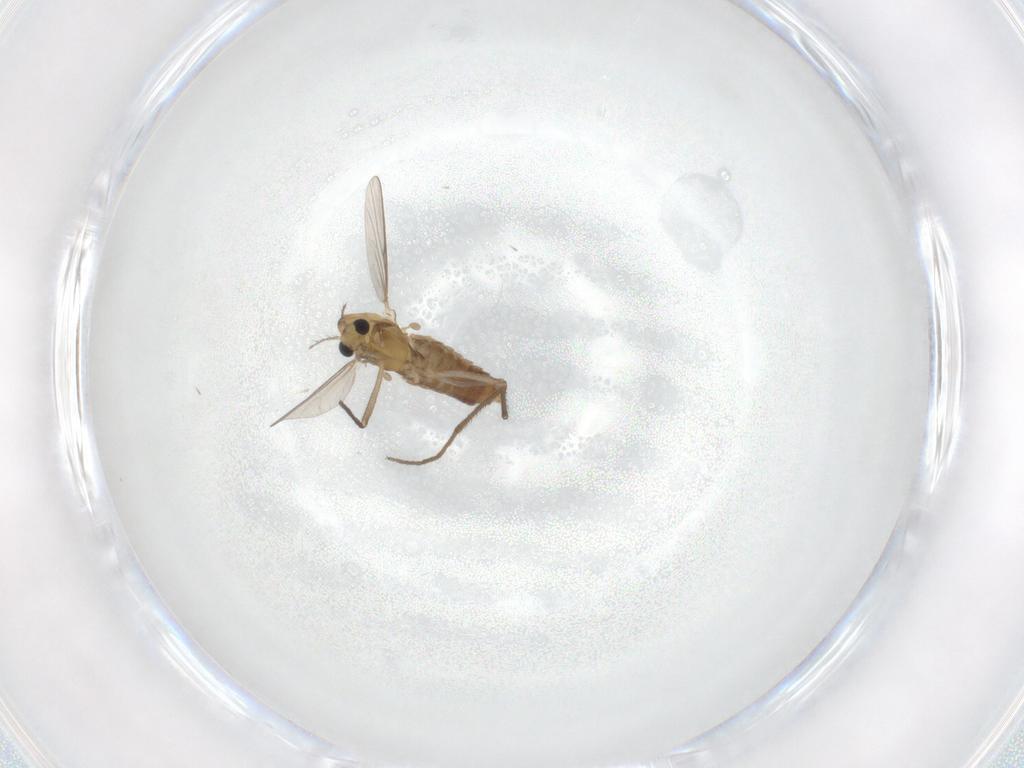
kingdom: Animalia
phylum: Arthropoda
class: Insecta
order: Diptera
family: Chironomidae
